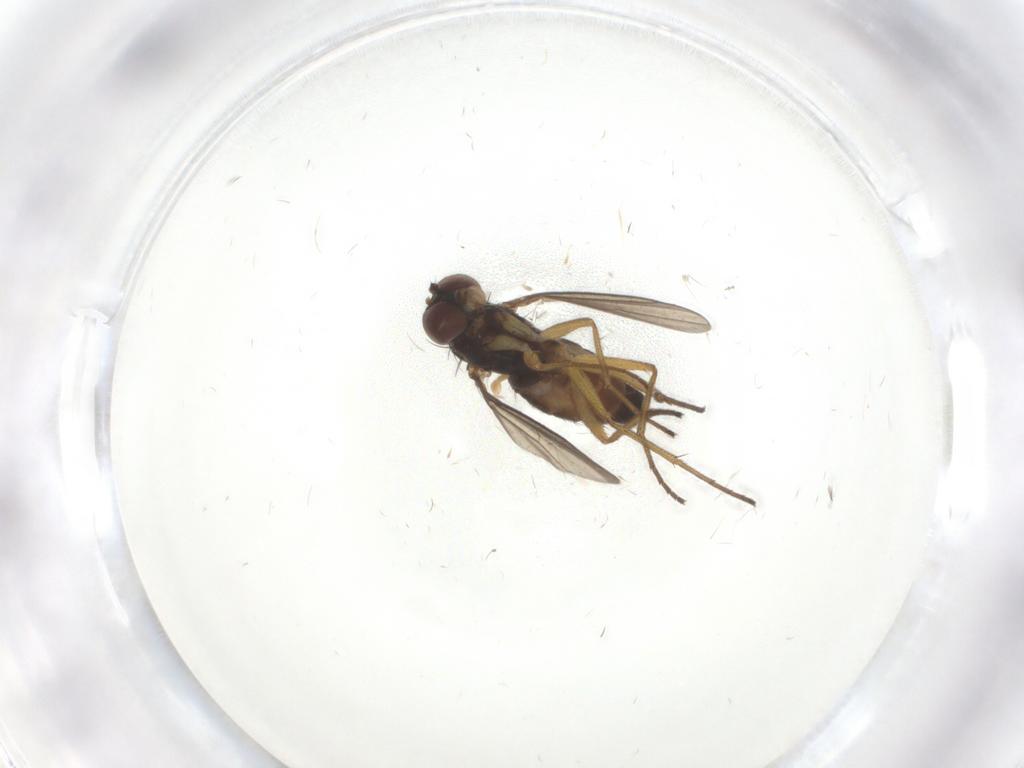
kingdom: Animalia
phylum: Arthropoda
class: Insecta
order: Diptera
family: Dolichopodidae
